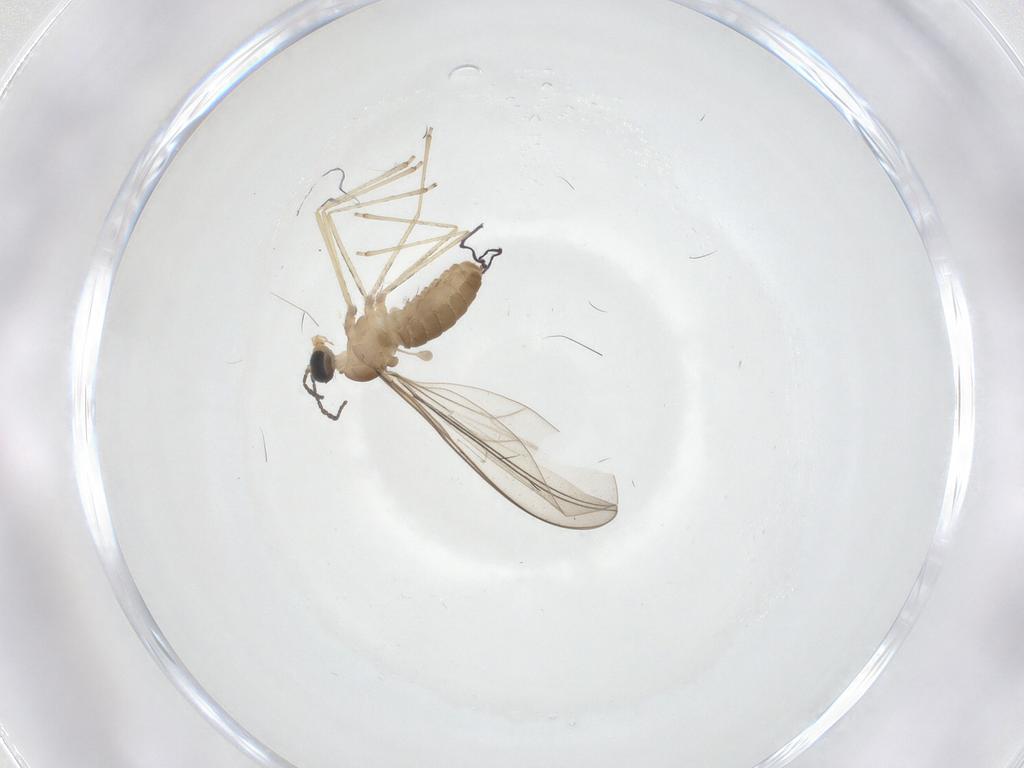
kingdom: Animalia
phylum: Arthropoda
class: Insecta
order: Diptera
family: Cecidomyiidae
